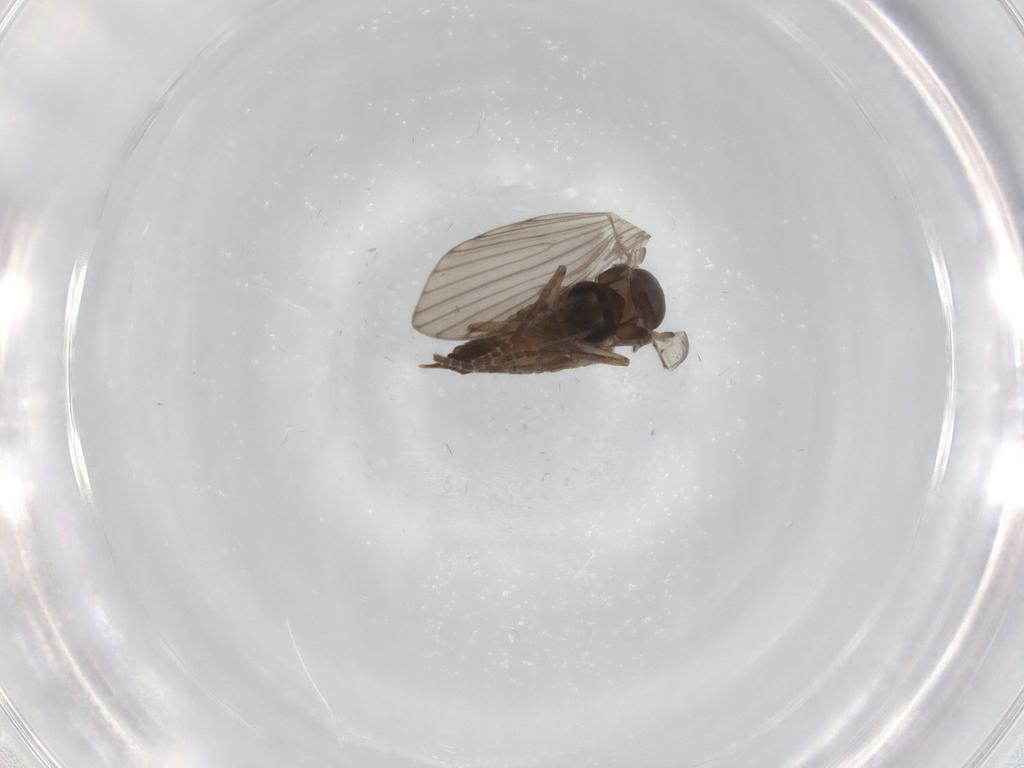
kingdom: Animalia
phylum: Arthropoda
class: Insecta
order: Diptera
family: Psychodidae
